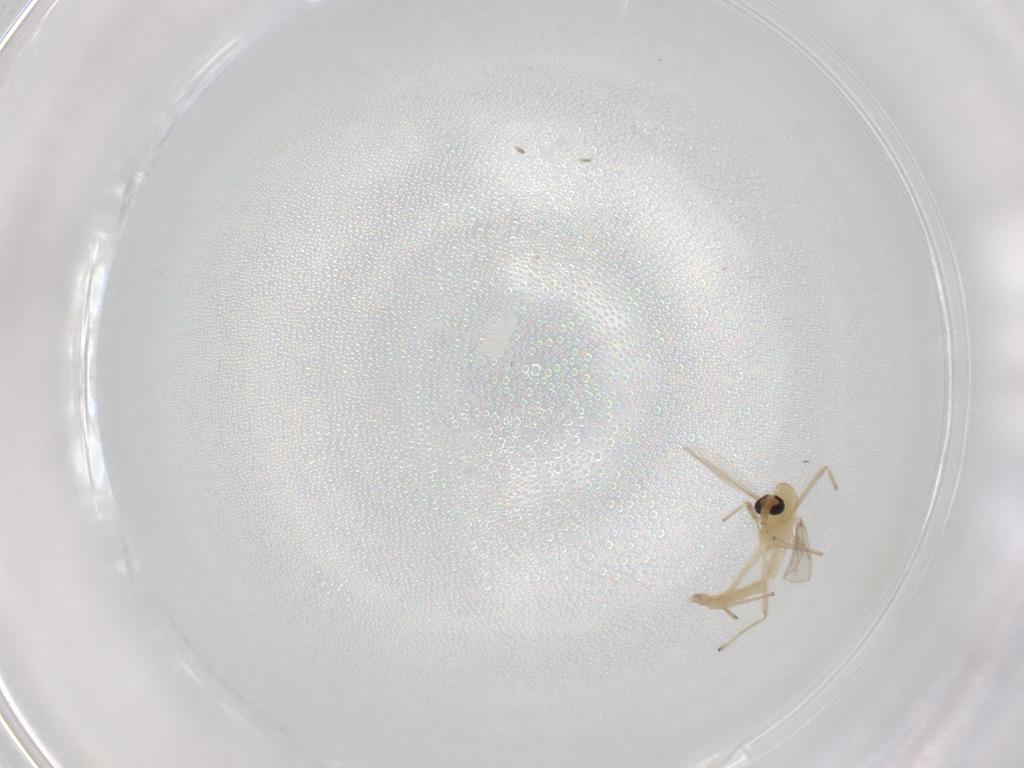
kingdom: Animalia
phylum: Arthropoda
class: Insecta
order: Diptera
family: Chironomidae
